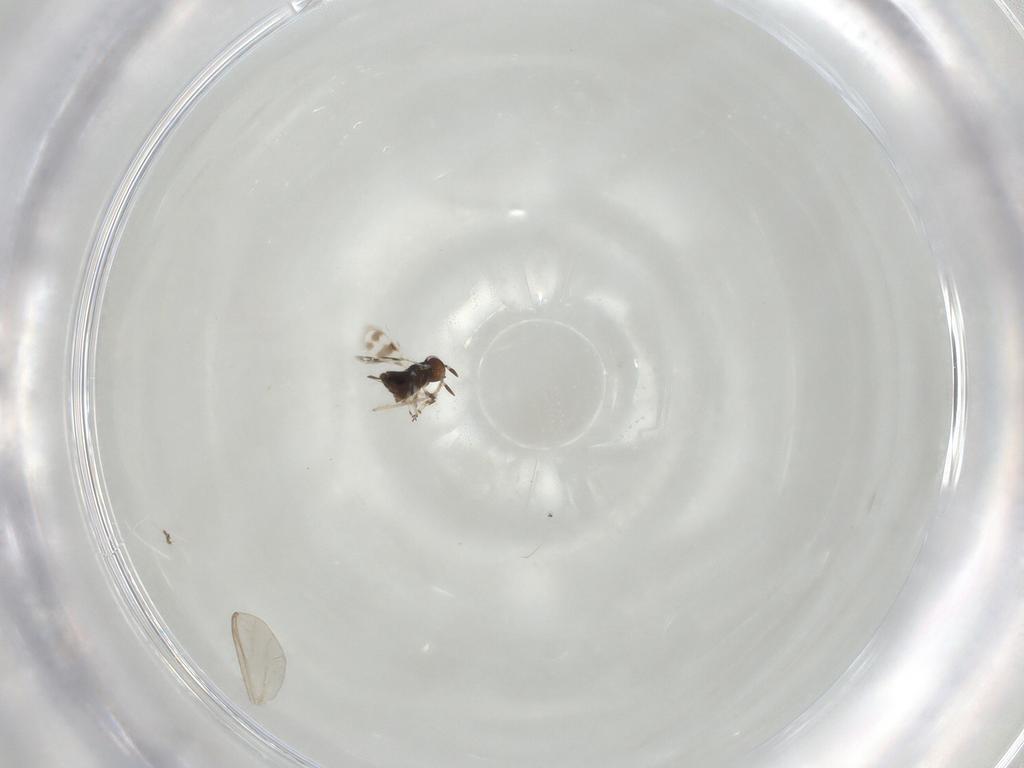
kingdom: Animalia
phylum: Arthropoda
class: Insecta
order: Hymenoptera
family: Azotidae
